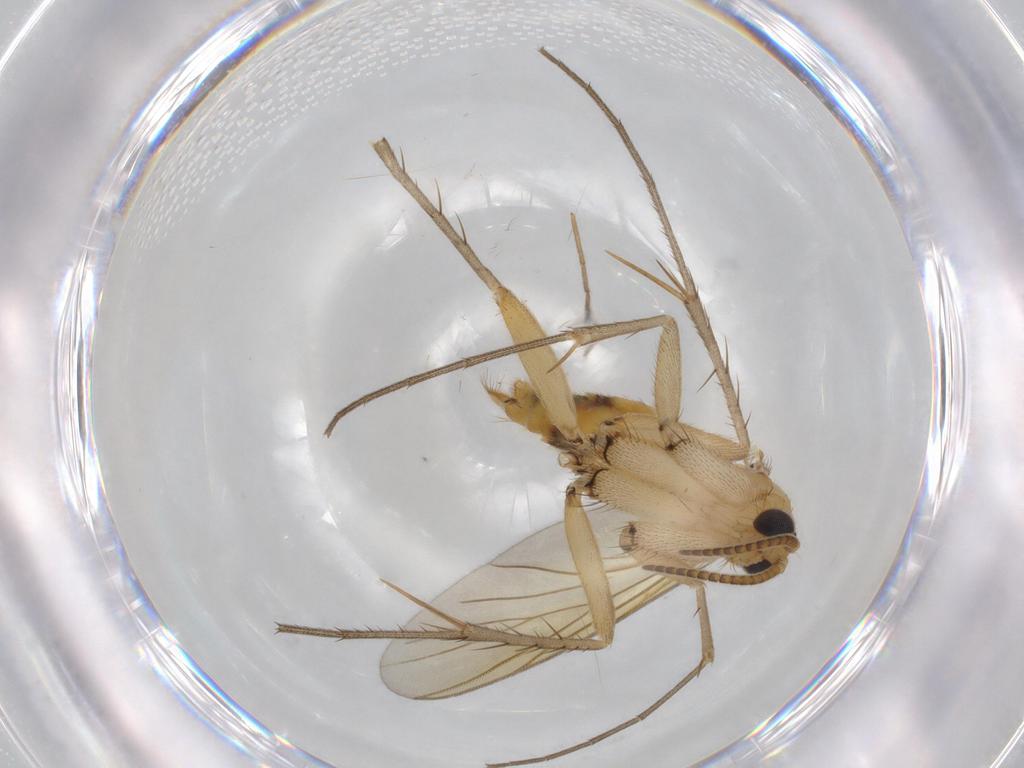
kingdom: Animalia
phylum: Arthropoda
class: Insecta
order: Diptera
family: Mycetophilidae
